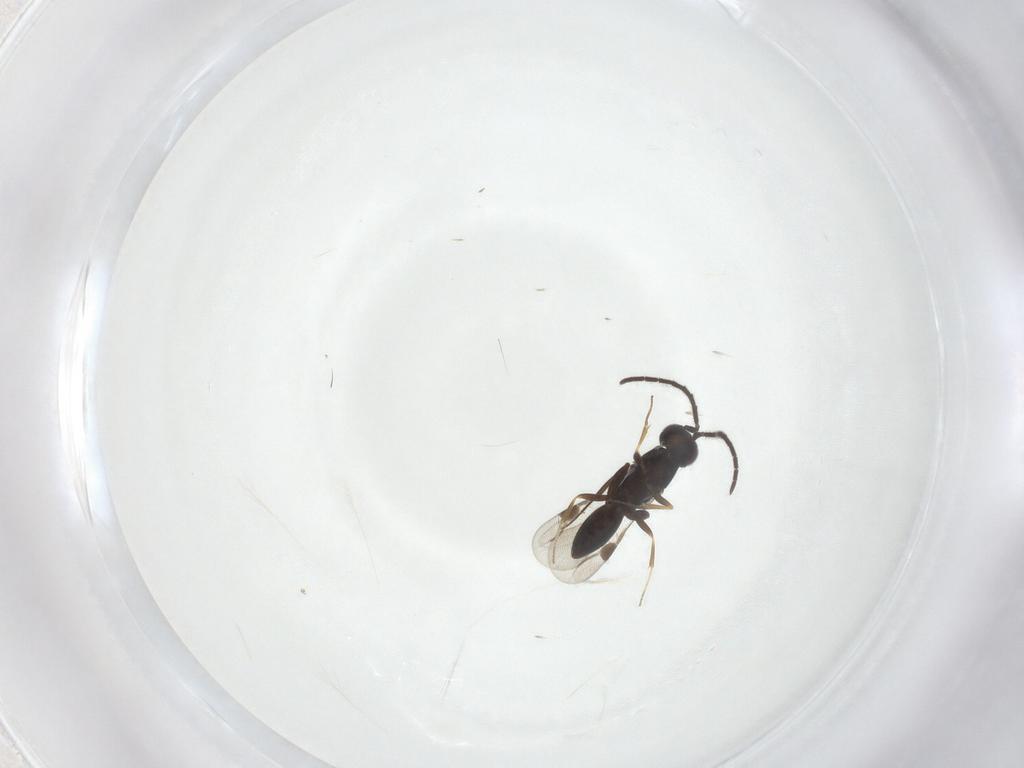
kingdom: Animalia
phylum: Arthropoda
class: Insecta
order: Hymenoptera
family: Megaspilidae
